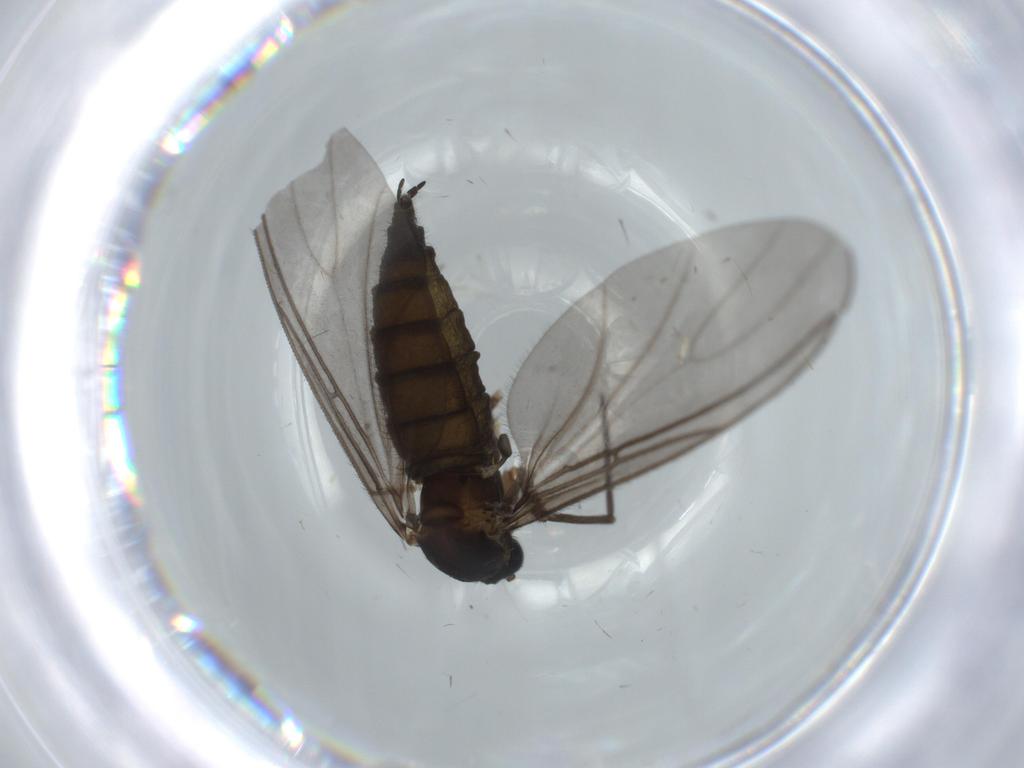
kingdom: Animalia
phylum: Arthropoda
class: Insecta
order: Diptera
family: Sciaridae
